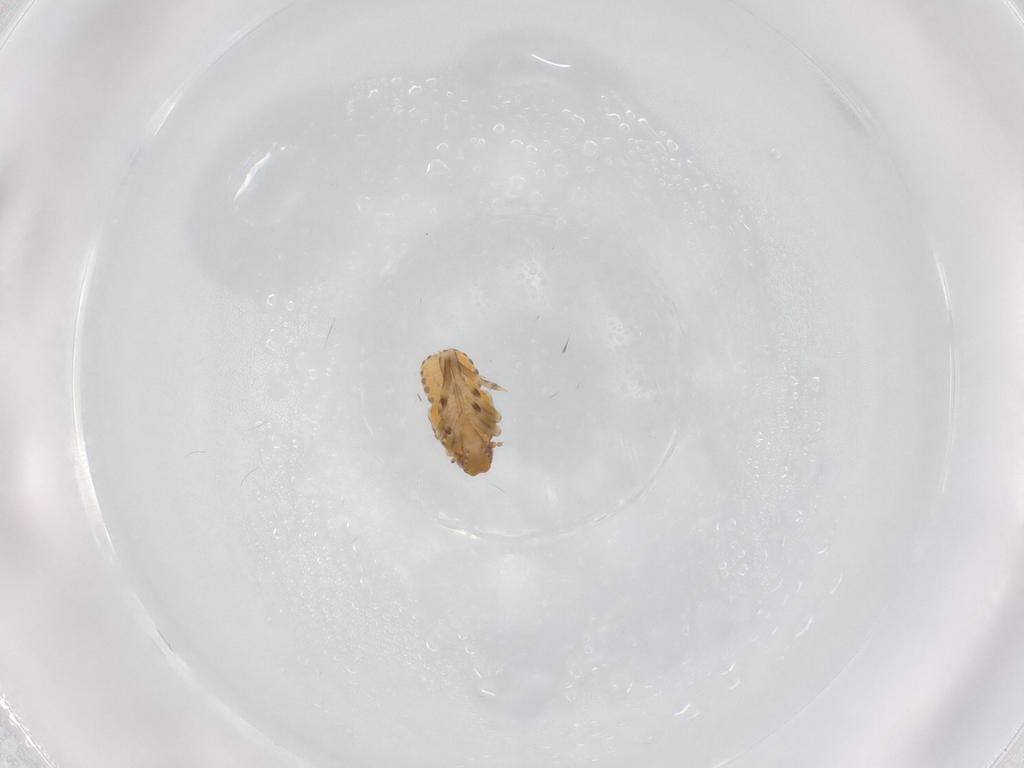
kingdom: Animalia
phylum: Arthropoda
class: Insecta
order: Hemiptera
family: Flatidae
